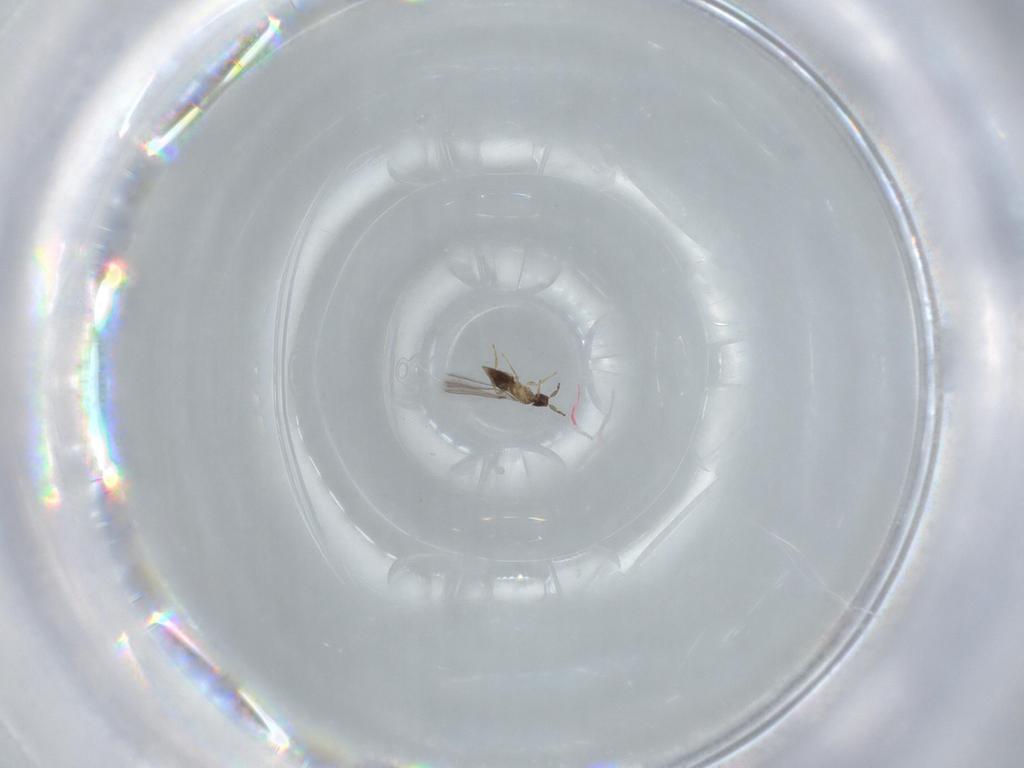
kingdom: Animalia
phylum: Arthropoda
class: Insecta
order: Hymenoptera
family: Mymaridae
